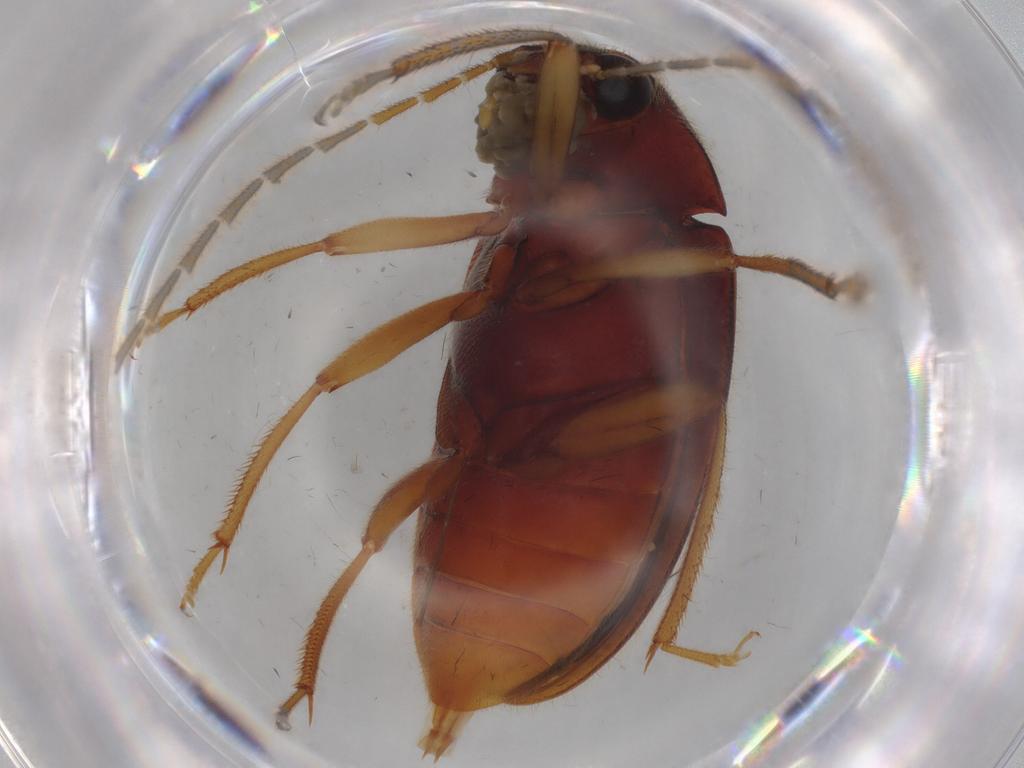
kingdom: Animalia
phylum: Arthropoda
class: Insecta
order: Coleoptera
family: Ptilodactylidae
